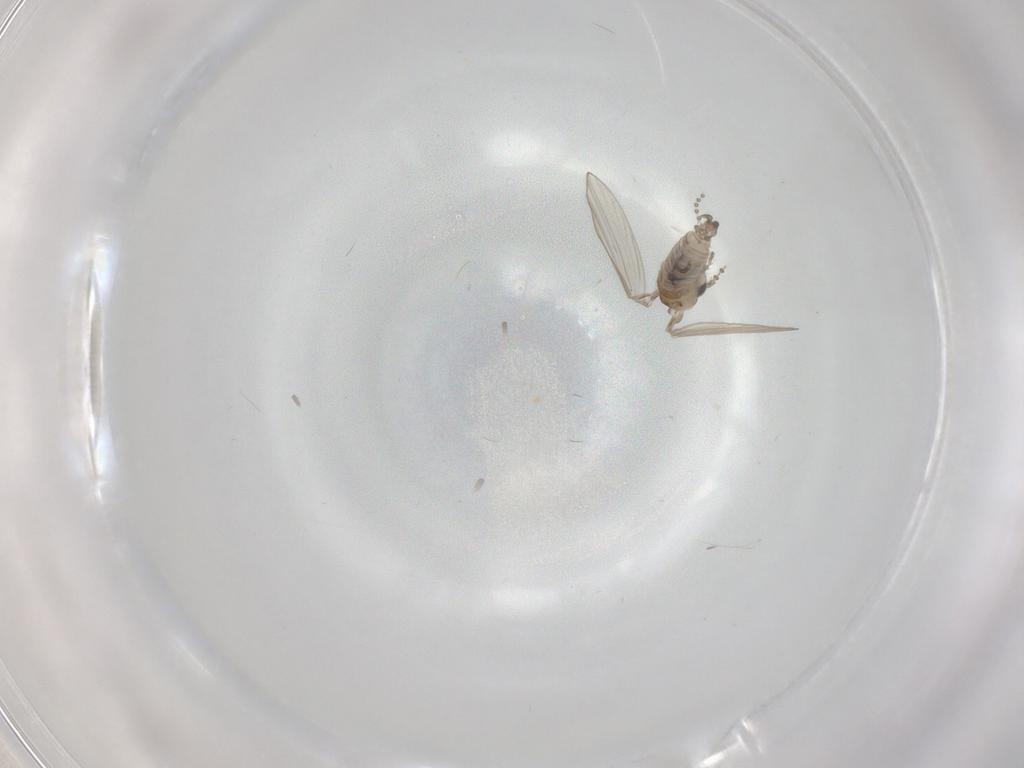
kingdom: Animalia
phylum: Arthropoda
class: Insecta
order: Diptera
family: Psychodidae
